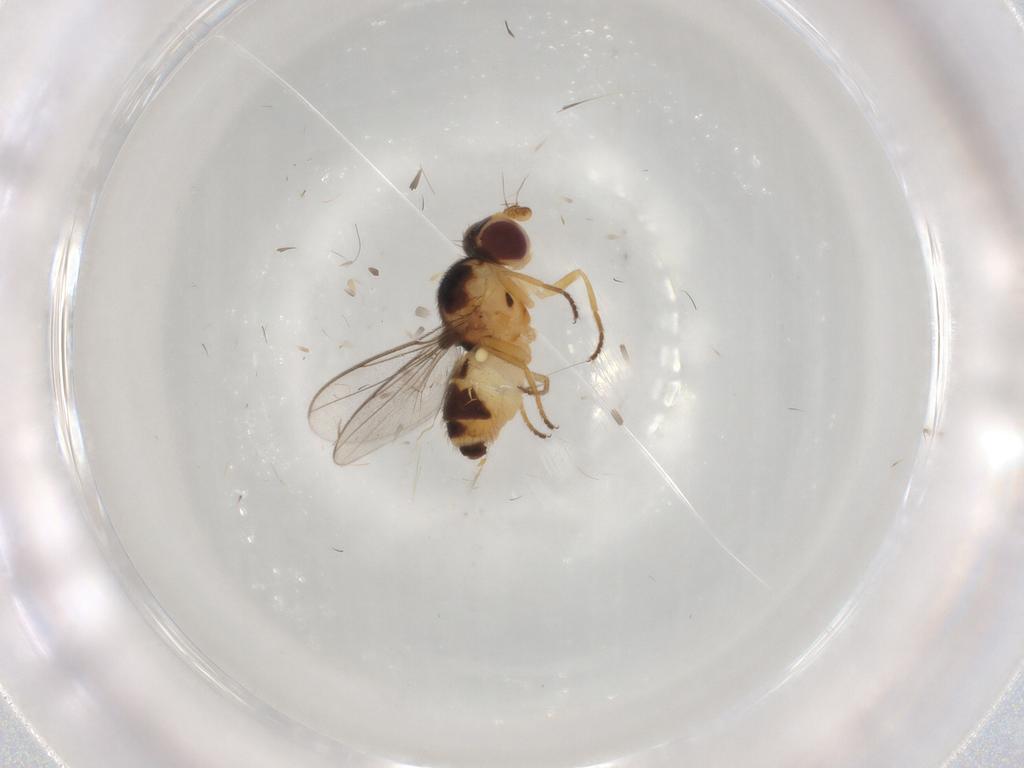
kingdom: Animalia
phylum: Arthropoda
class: Insecta
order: Diptera
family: Chloropidae
